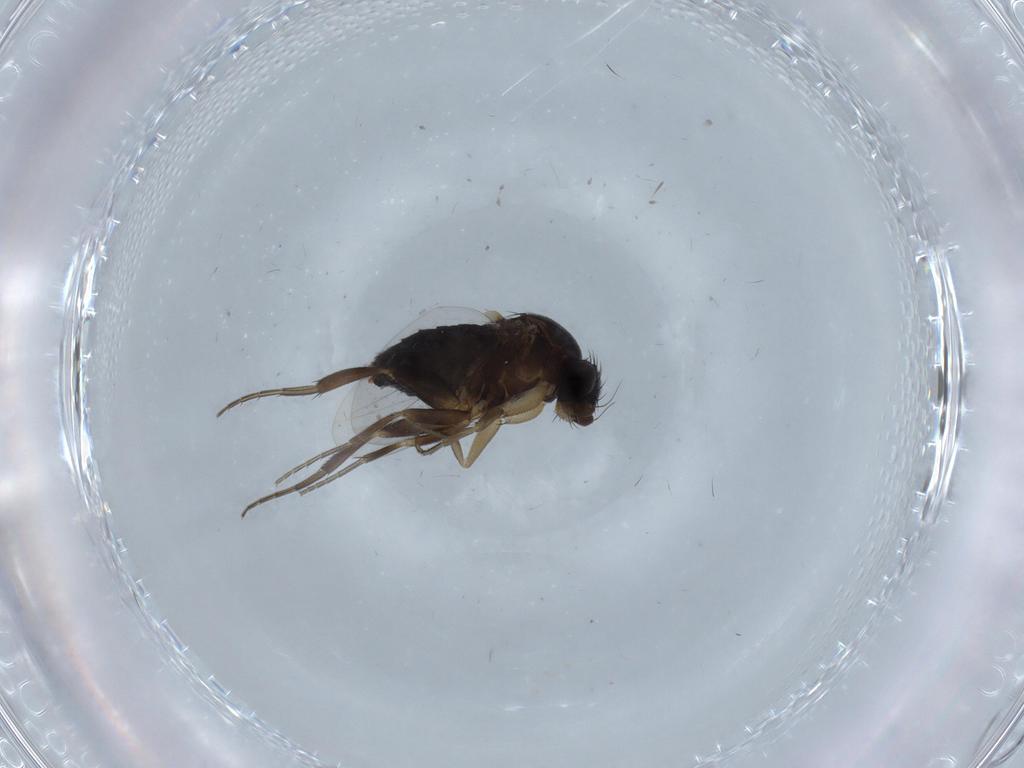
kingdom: Animalia
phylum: Arthropoda
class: Insecta
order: Diptera
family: Phoridae
